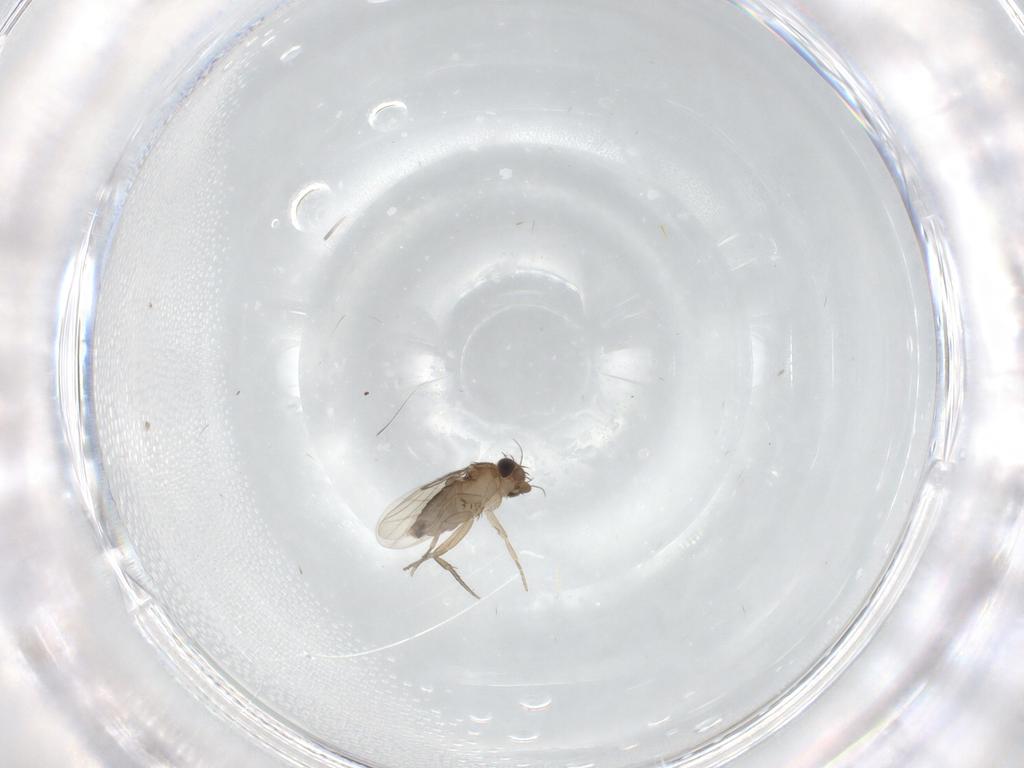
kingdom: Animalia
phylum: Arthropoda
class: Insecta
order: Diptera
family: Phoridae
